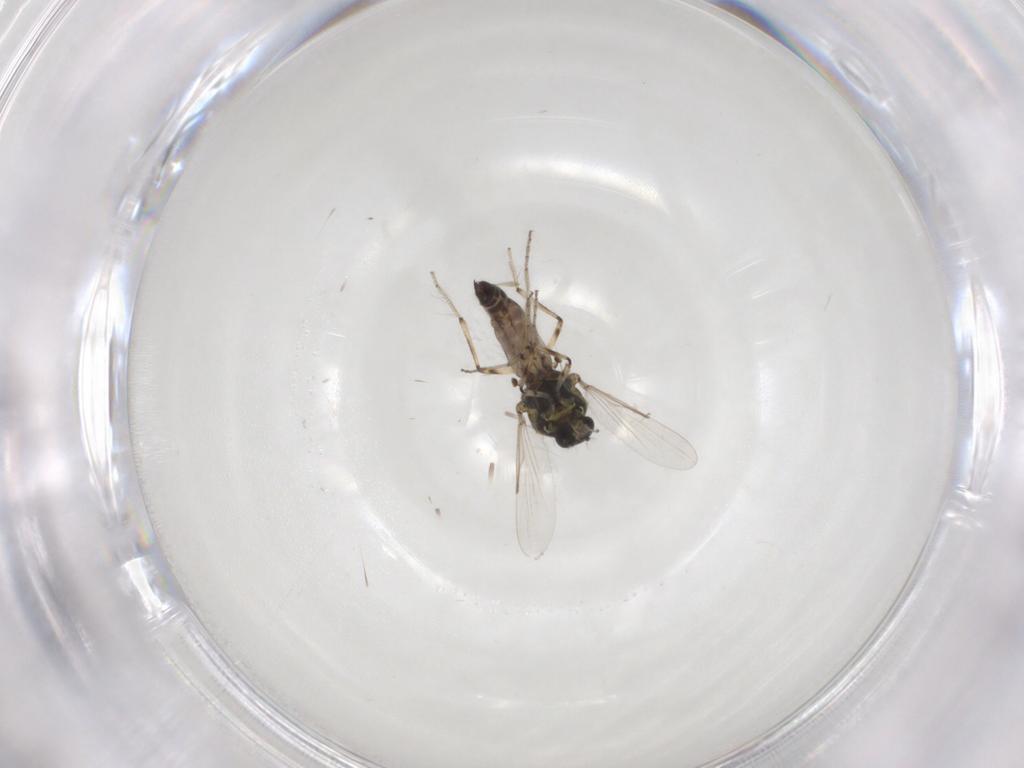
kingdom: Animalia
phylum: Arthropoda
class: Insecta
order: Diptera
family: Ceratopogonidae
